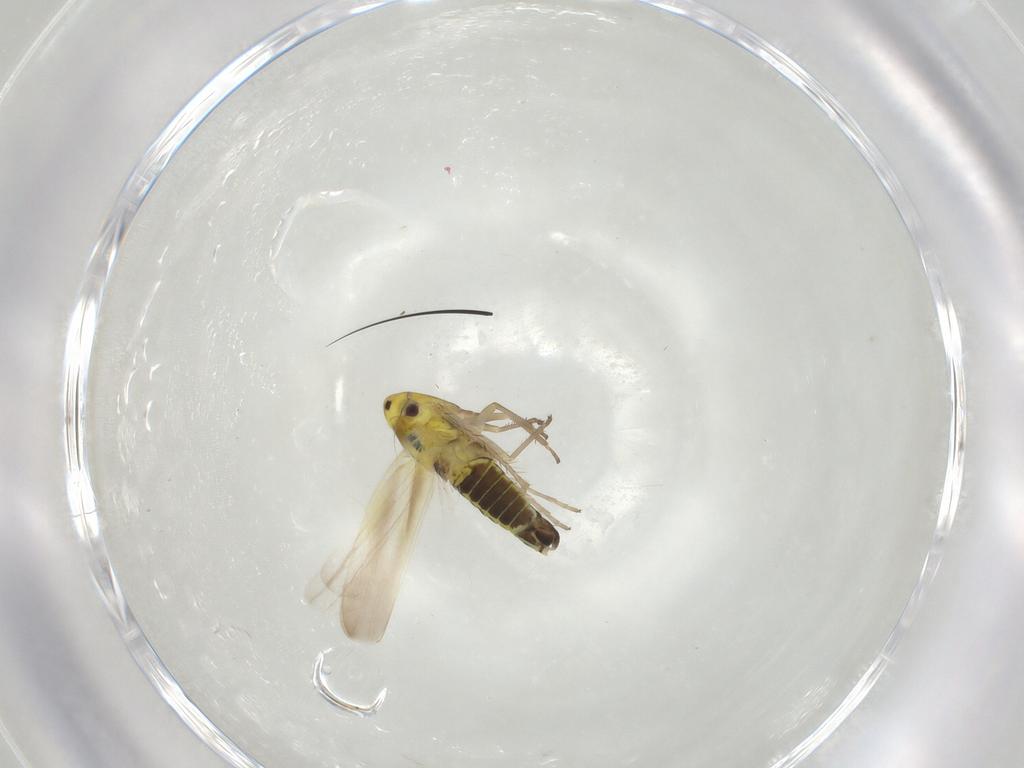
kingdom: Animalia
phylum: Arthropoda
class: Insecta
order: Hemiptera
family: Cicadellidae
